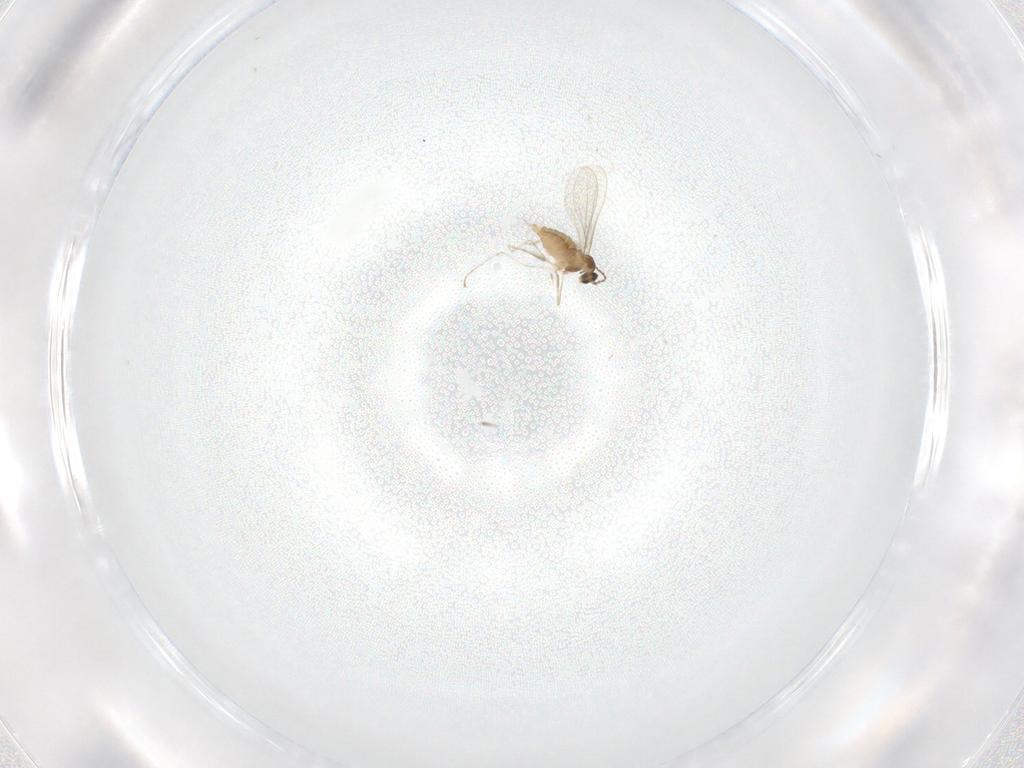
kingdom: Animalia
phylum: Arthropoda
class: Insecta
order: Diptera
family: Cecidomyiidae
